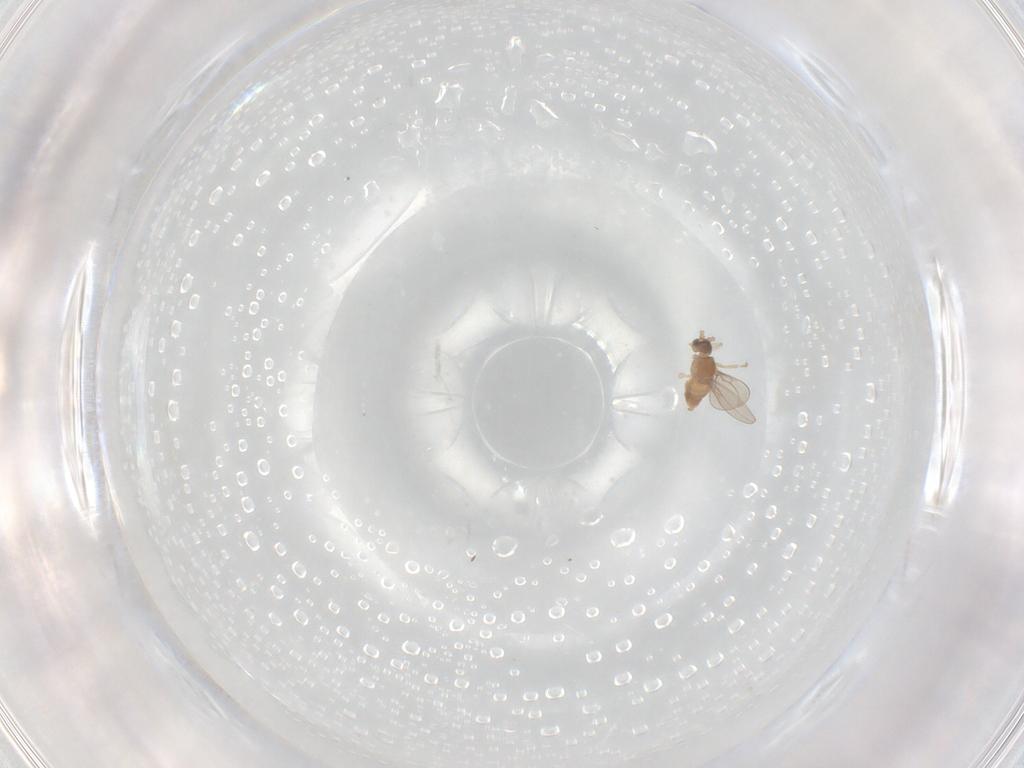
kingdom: Animalia
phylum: Arthropoda
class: Insecta
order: Diptera
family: Cecidomyiidae
